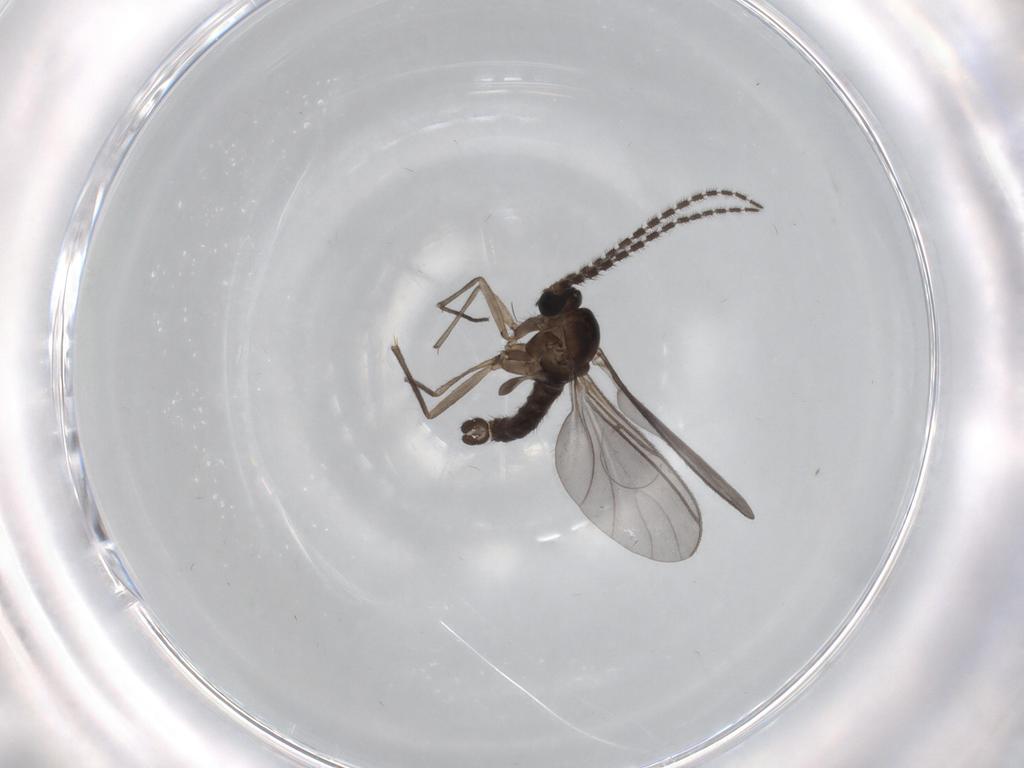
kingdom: Animalia
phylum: Arthropoda
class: Insecta
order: Diptera
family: Sciaridae
